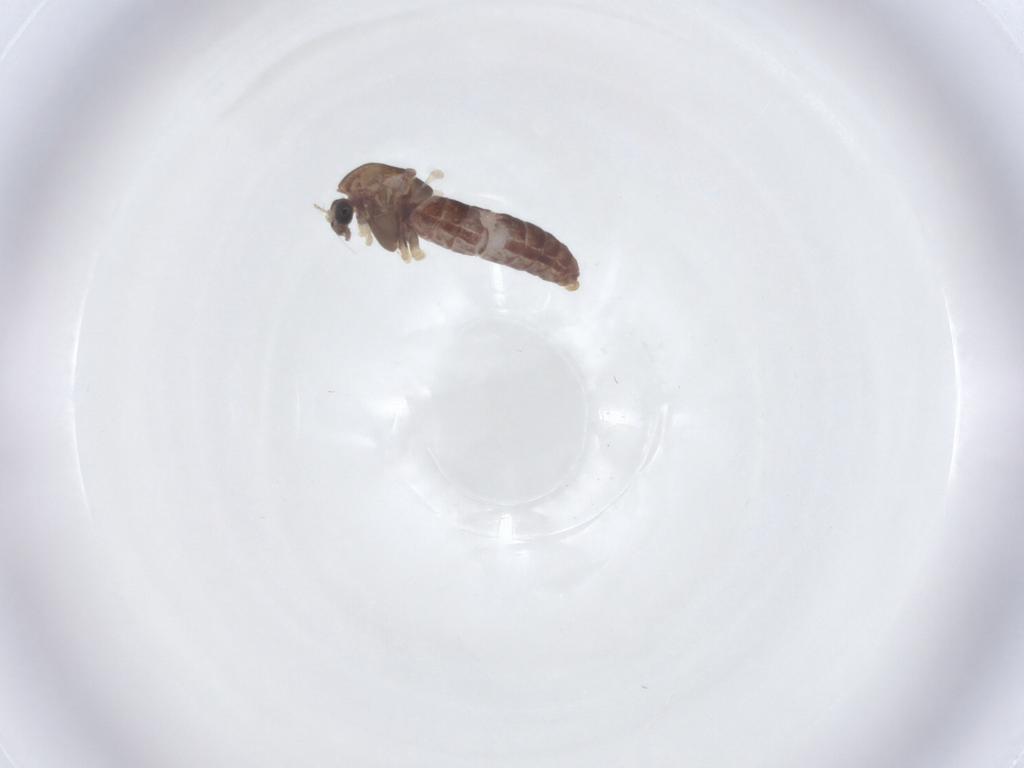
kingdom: Animalia
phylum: Arthropoda
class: Insecta
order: Diptera
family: Chironomidae
